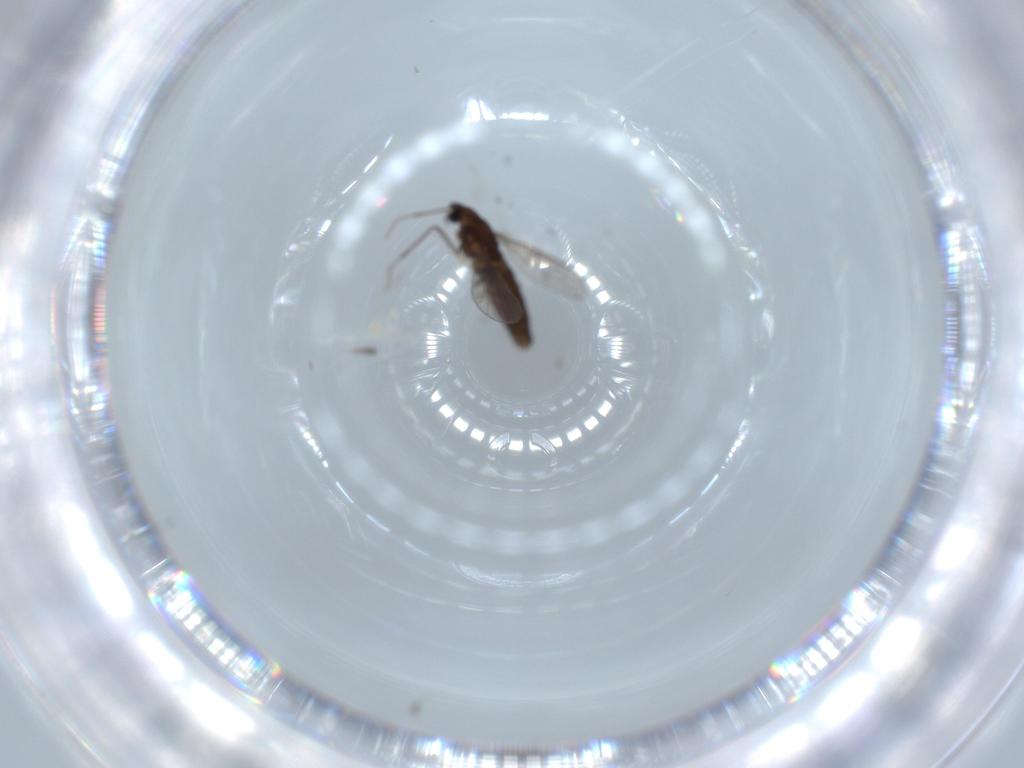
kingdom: Animalia
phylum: Arthropoda
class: Insecta
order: Diptera
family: Chironomidae
